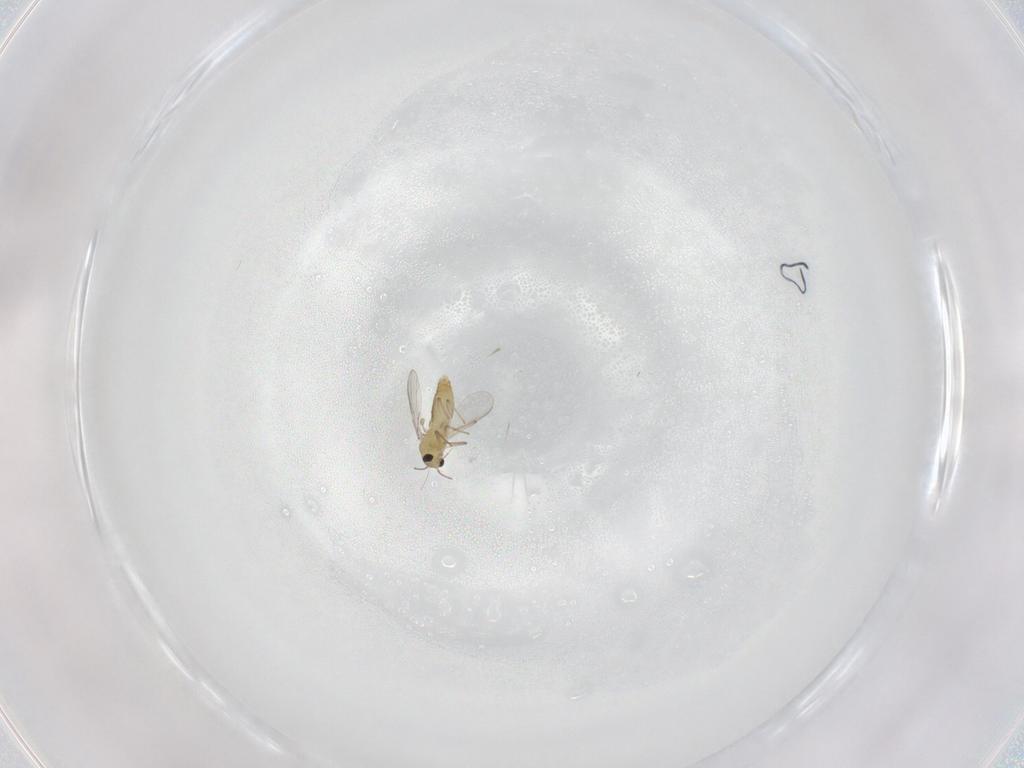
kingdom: Animalia
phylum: Arthropoda
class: Insecta
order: Diptera
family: Chironomidae
